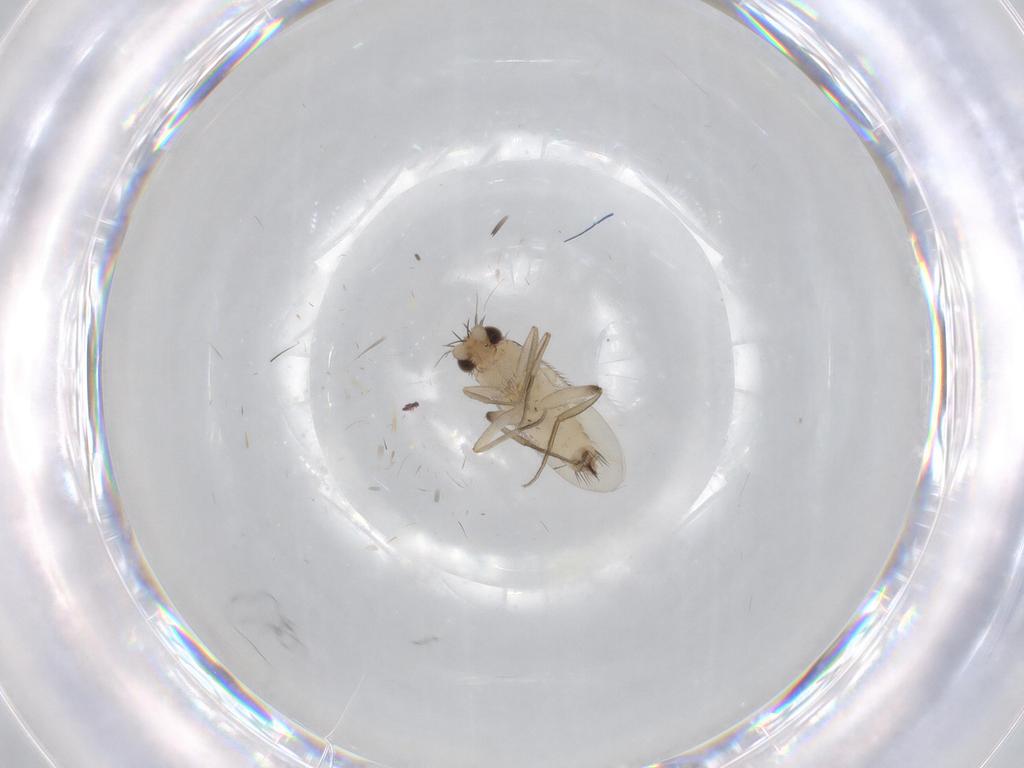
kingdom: Animalia
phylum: Arthropoda
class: Insecta
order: Diptera
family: Phoridae
